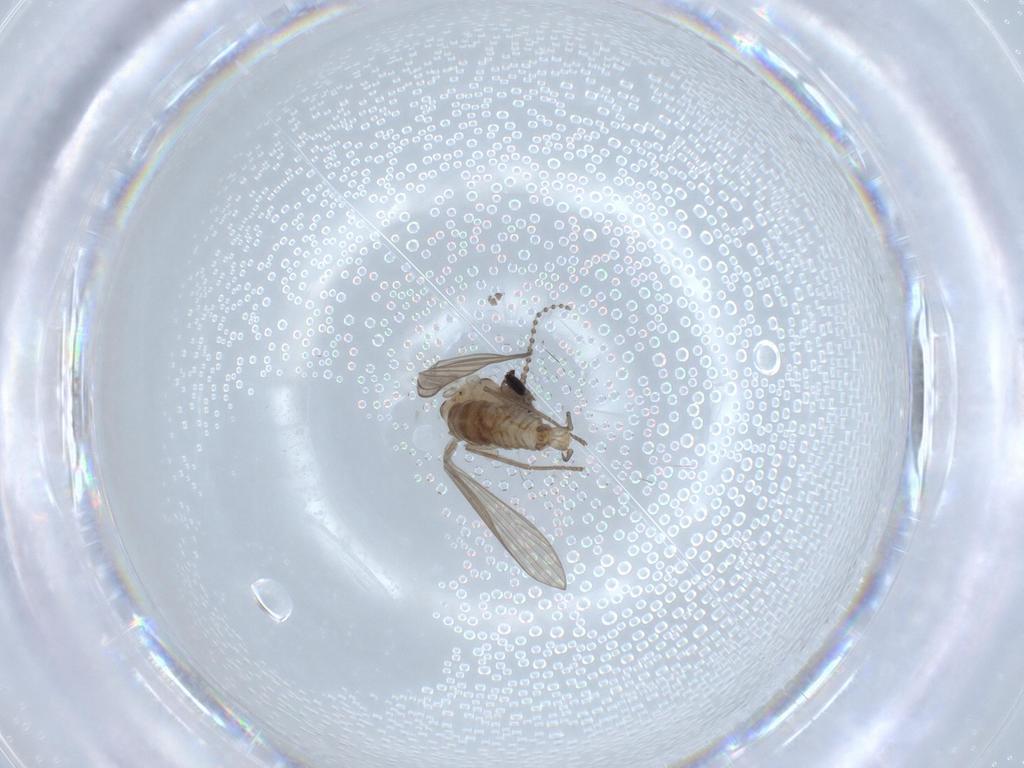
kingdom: Animalia
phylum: Arthropoda
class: Insecta
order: Diptera
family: Psychodidae
